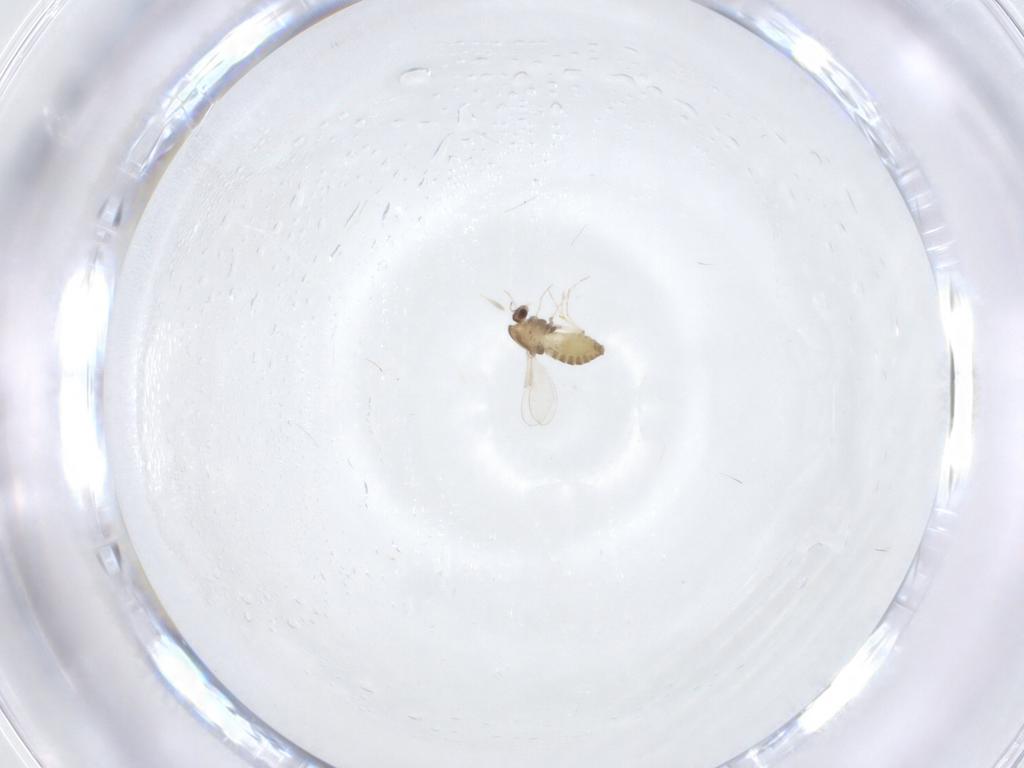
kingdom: Animalia
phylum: Arthropoda
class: Insecta
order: Diptera
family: Chironomidae
